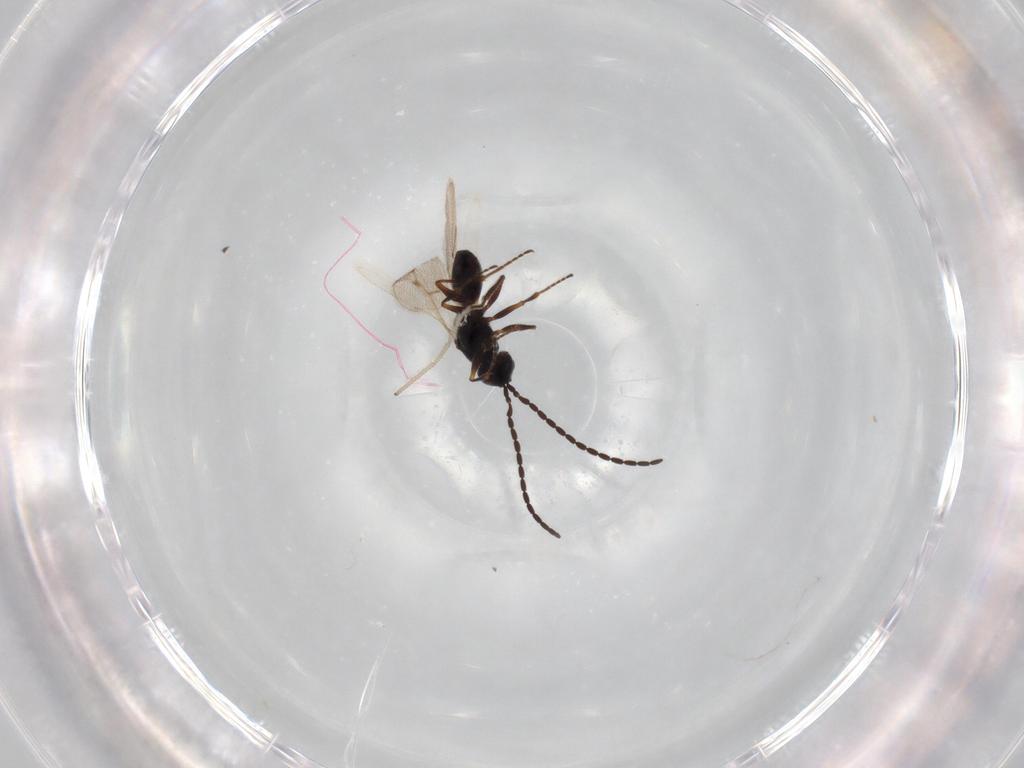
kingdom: Animalia
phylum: Arthropoda
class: Insecta
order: Hymenoptera
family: Figitidae
